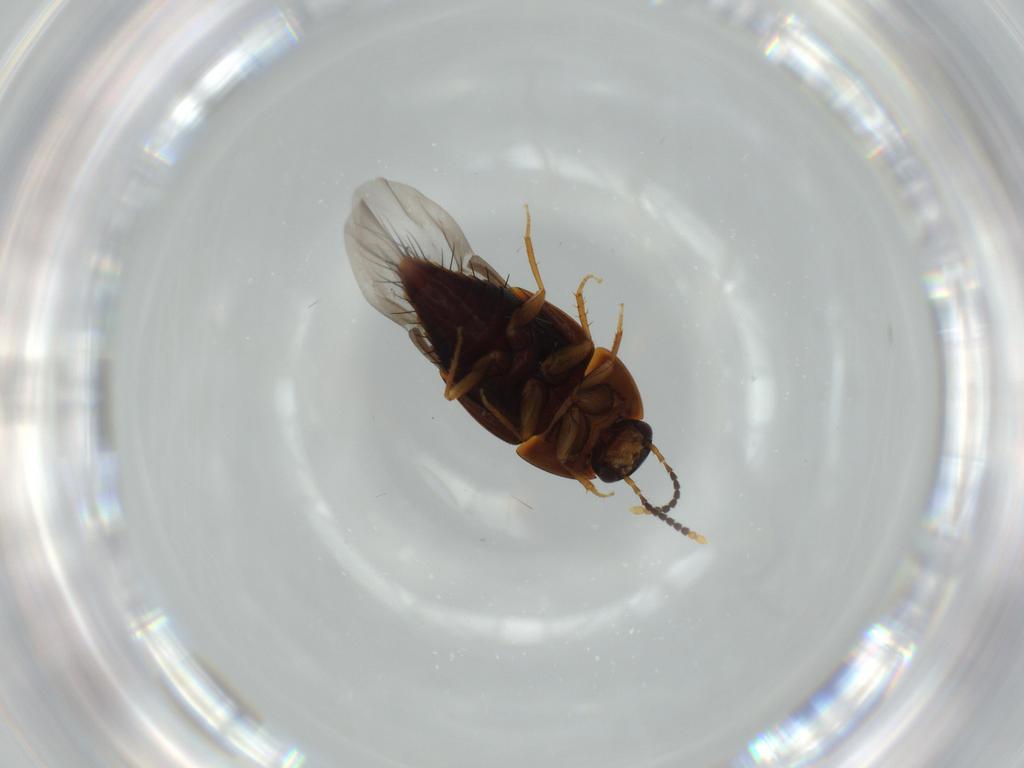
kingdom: Animalia
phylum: Arthropoda
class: Insecta
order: Coleoptera
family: Staphylinidae
